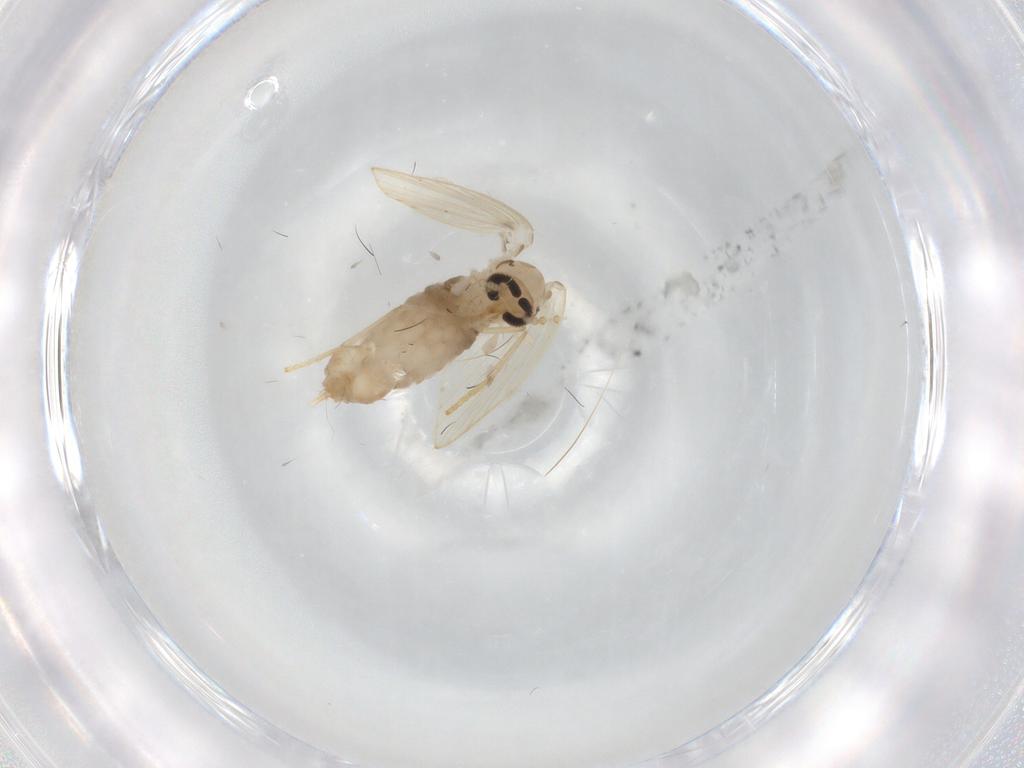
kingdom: Animalia
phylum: Arthropoda
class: Insecta
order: Diptera
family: Psychodidae
